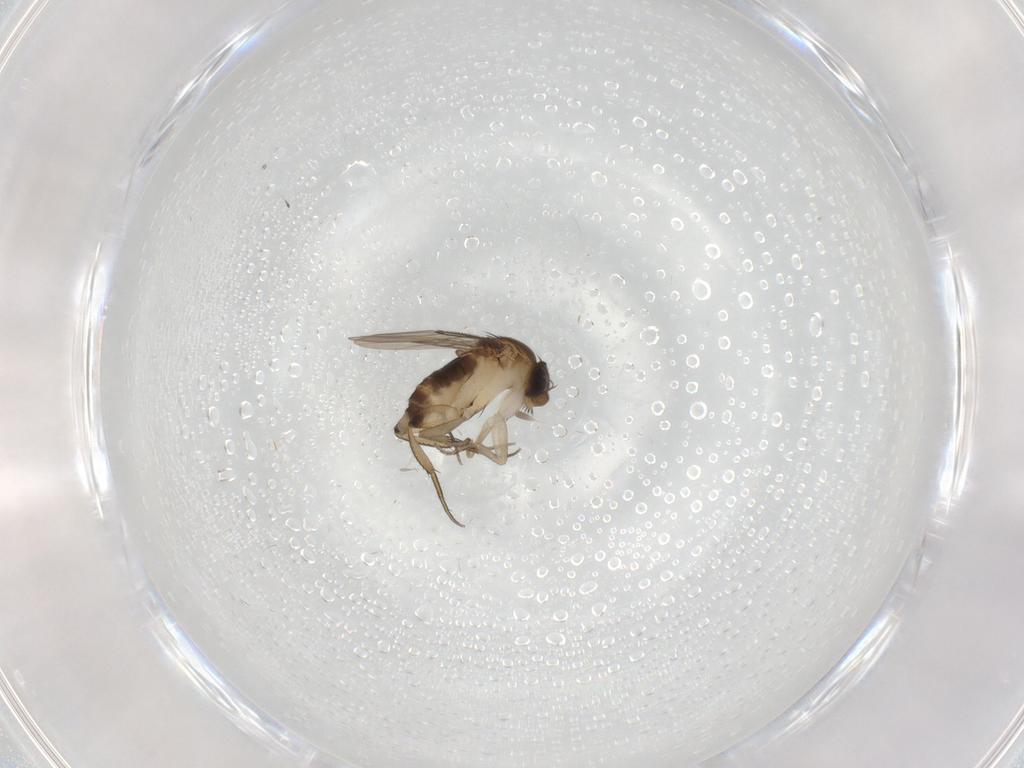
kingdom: Animalia
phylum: Arthropoda
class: Insecta
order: Diptera
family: Phoridae
